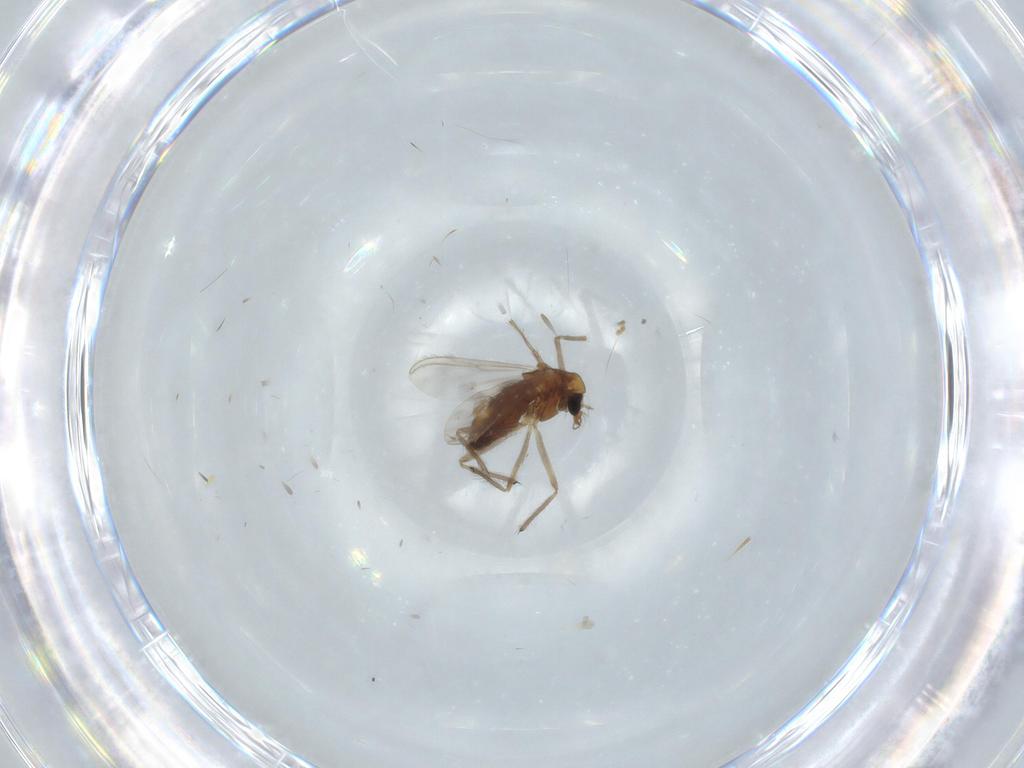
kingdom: Animalia
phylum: Arthropoda
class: Insecta
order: Diptera
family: Chironomidae
